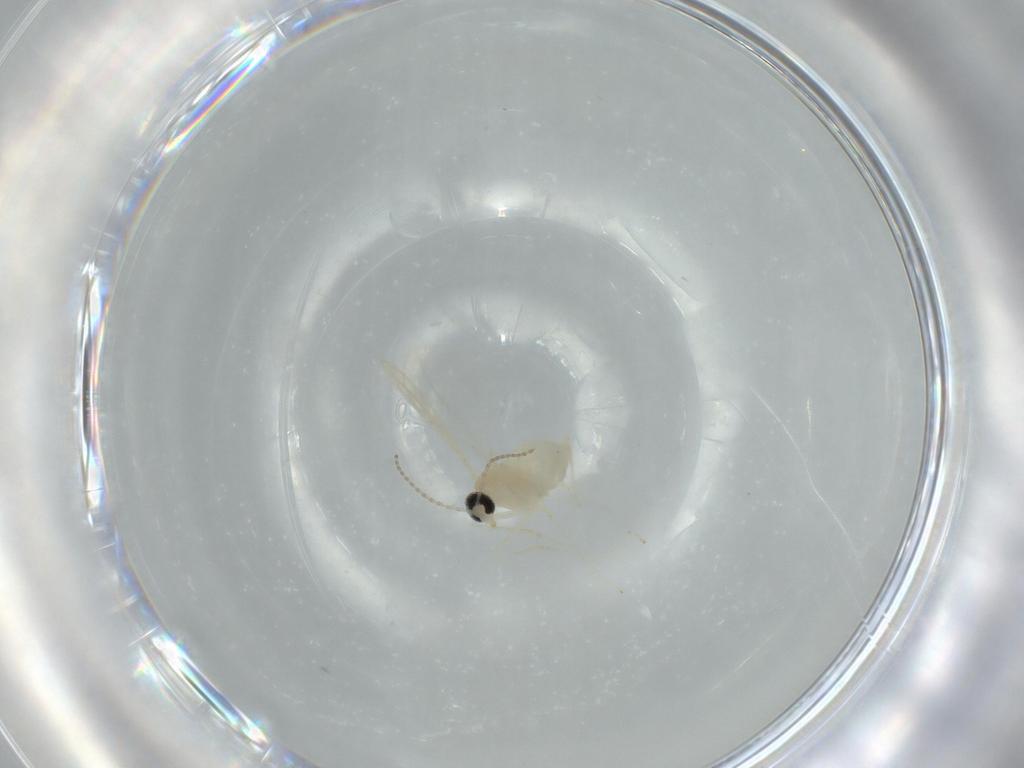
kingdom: Animalia
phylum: Arthropoda
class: Insecta
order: Diptera
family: Cecidomyiidae
